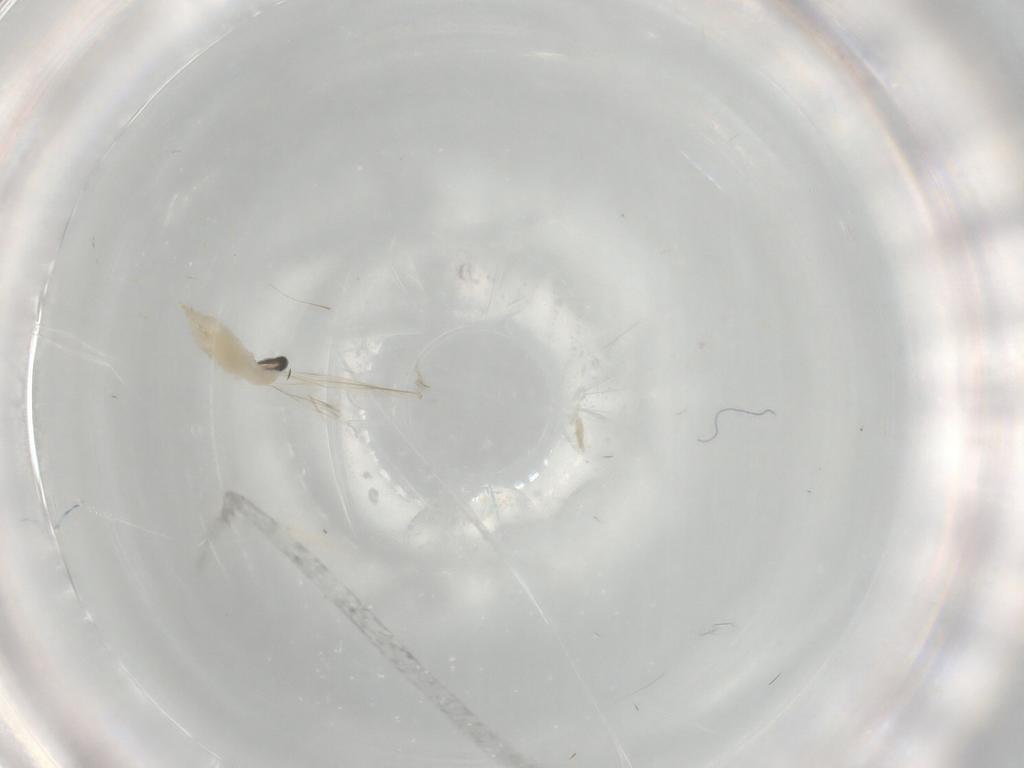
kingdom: Animalia
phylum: Arthropoda
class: Insecta
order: Diptera
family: Cecidomyiidae
